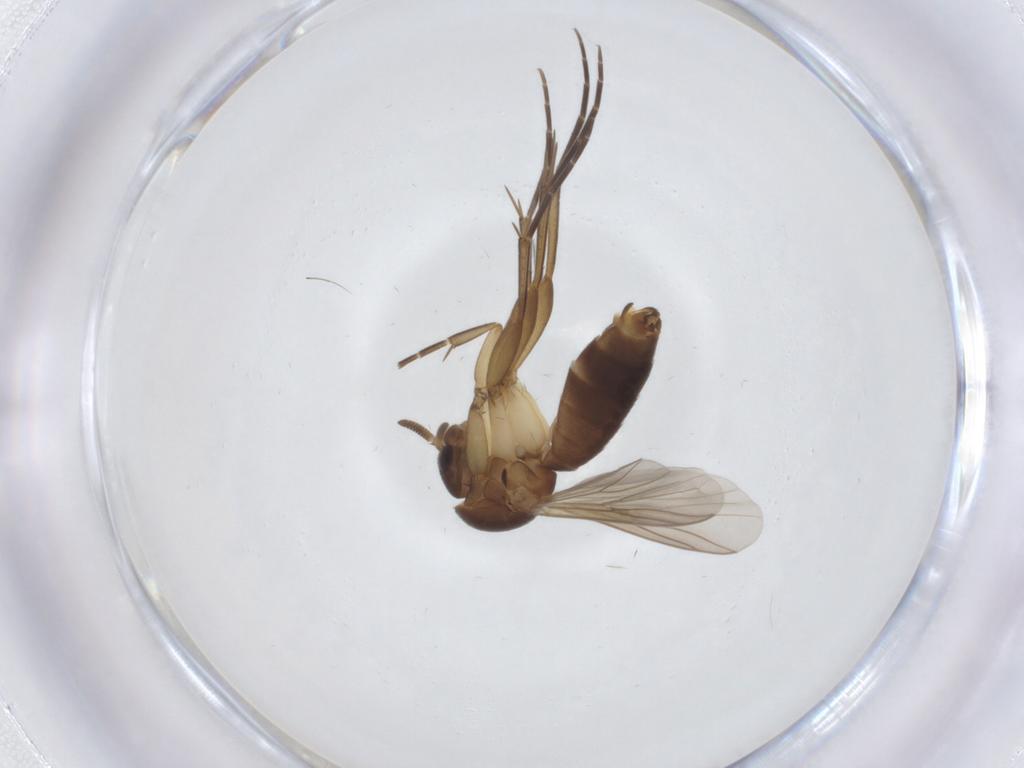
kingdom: Animalia
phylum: Arthropoda
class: Insecta
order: Diptera
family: Mycetophilidae
